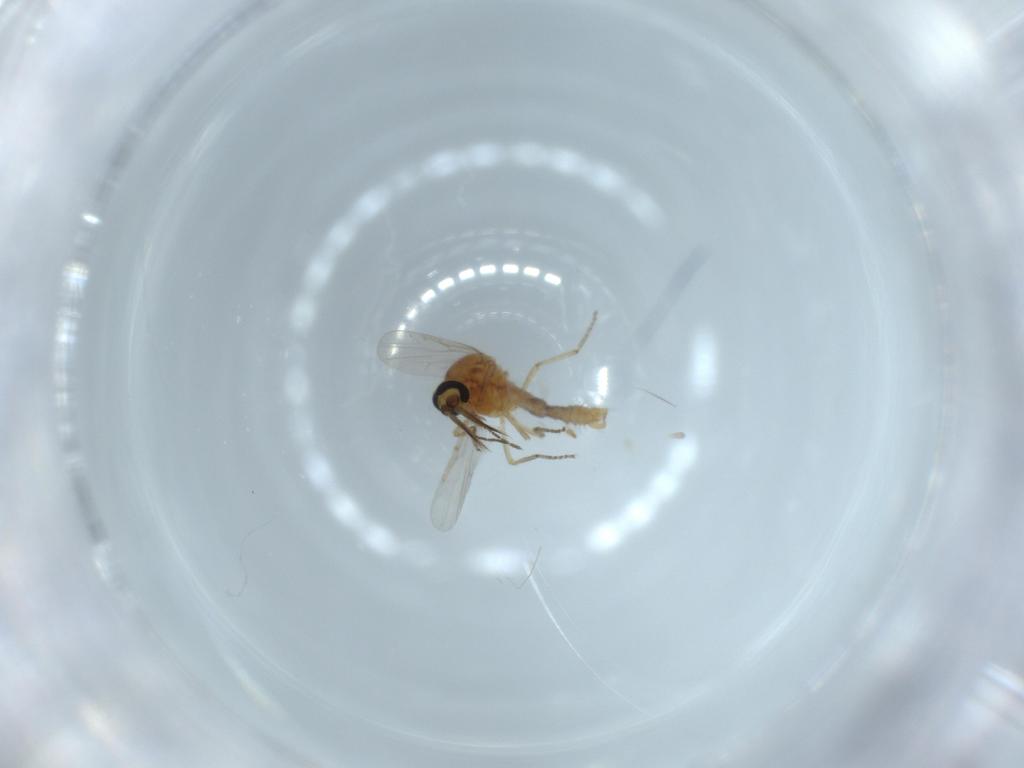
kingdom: Animalia
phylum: Arthropoda
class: Insecta
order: Diptera
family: Ceratopogonidae
